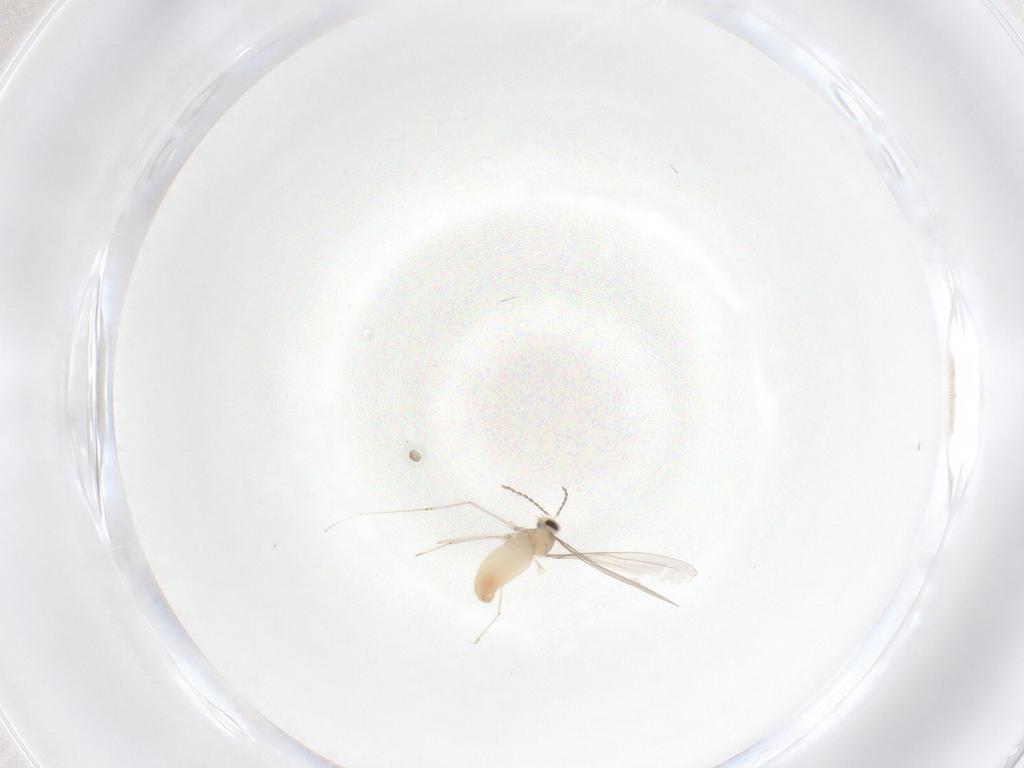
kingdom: Animalia
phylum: Arthropoda
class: Insecta
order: Diptera
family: Cecidomyiidae
